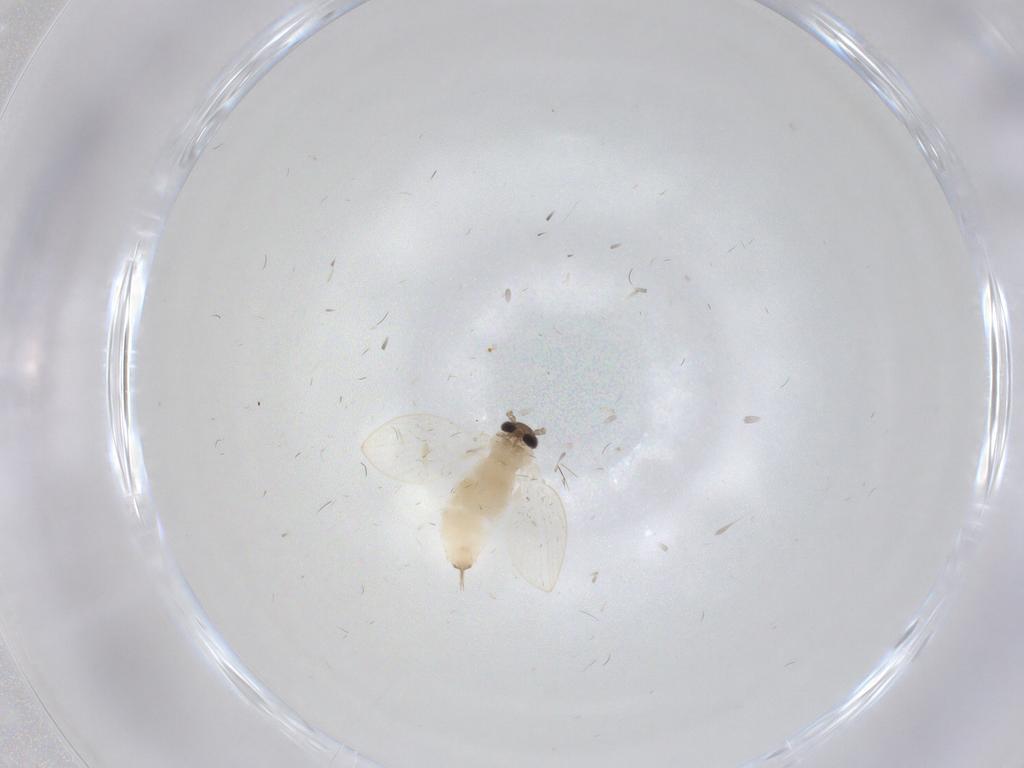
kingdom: Animalia
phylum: Arthropoda
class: Insecta
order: Diptera
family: Psychodidae
